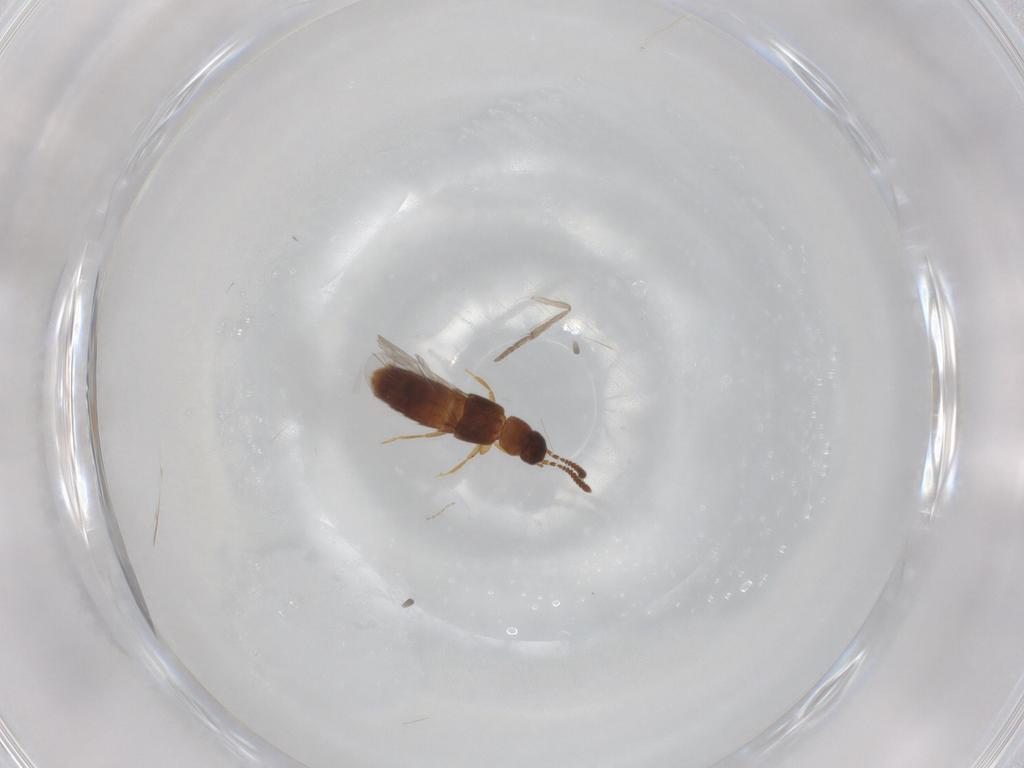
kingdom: Animalia
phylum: Arthropoda
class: Insecta
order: Coleoptera
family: Staphylinidae
